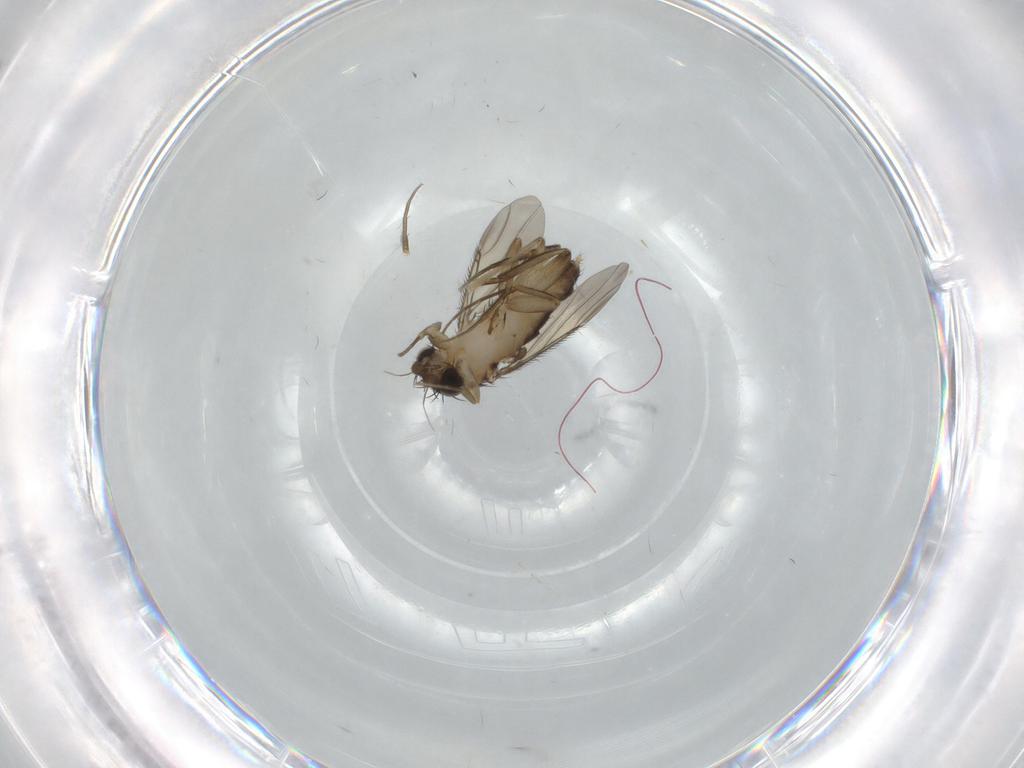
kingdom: Animalia
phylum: Arthropoda
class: Insecta
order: Diptera
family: Phoridae
